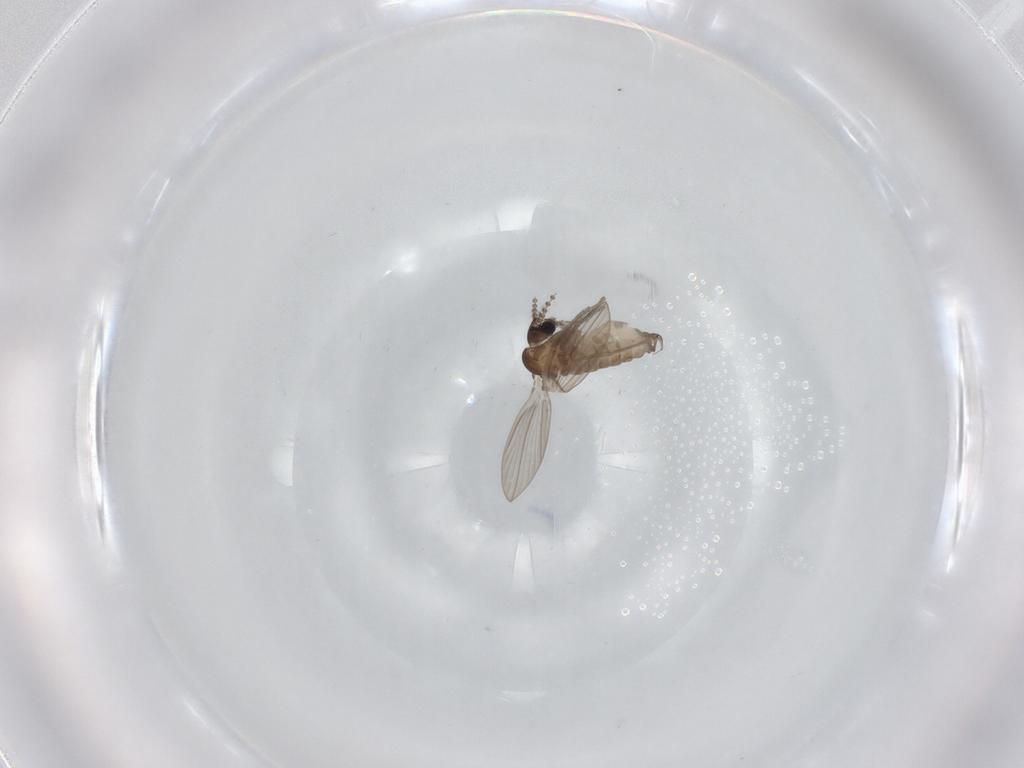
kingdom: Animalia
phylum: Arthropoda
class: Insecta
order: Diptera
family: Psychodidae
